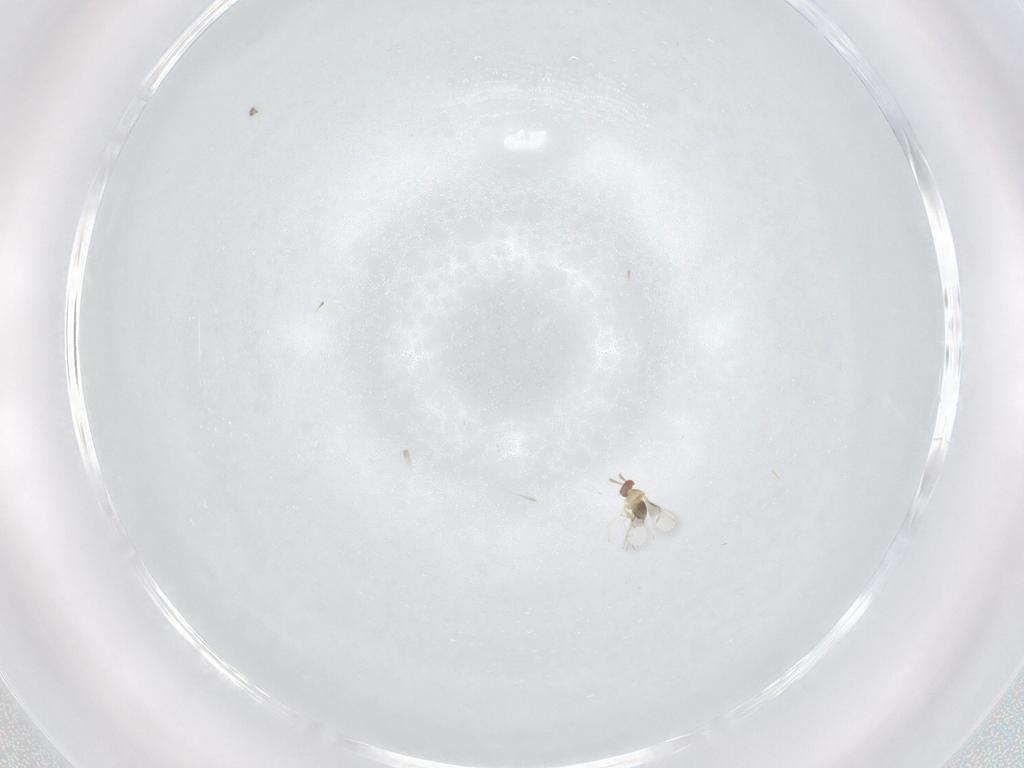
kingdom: Animalia
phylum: Arthropoda
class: Insecta
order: Hymenoptera
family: Trichogrammatidae
